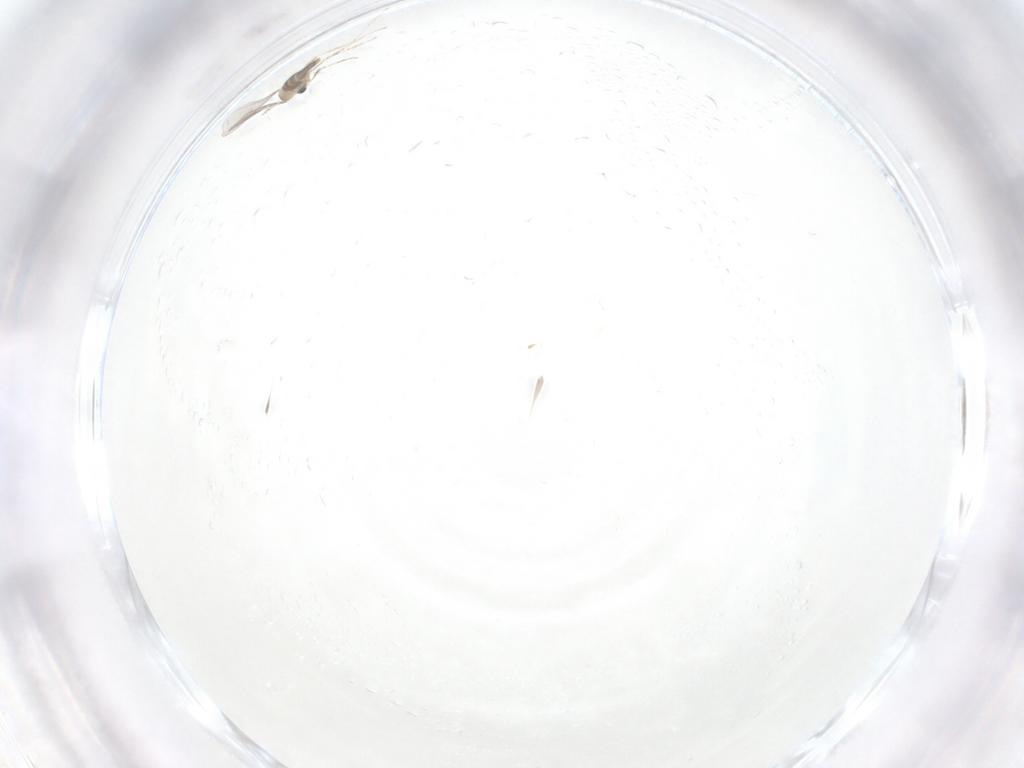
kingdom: Animalia
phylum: Arthropoda
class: Insecta
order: Diptera
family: Cecidomyiidae
